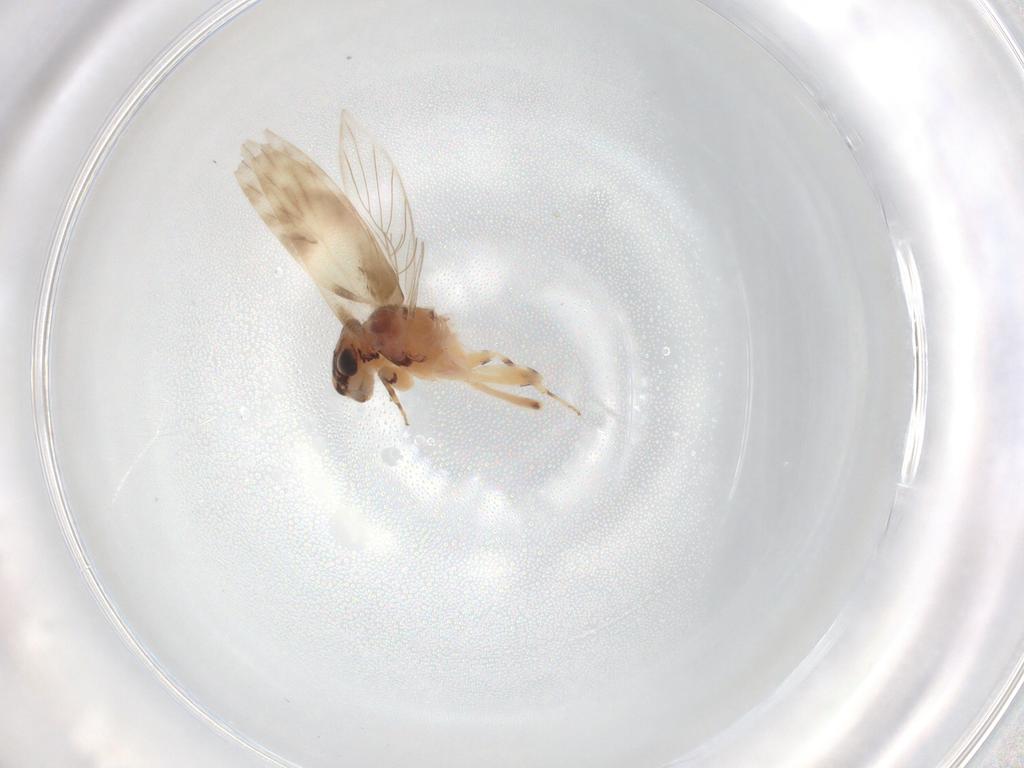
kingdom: Animalia
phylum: Arthropoda
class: Insecta
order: Psocodea
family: Lepidopsocidae
